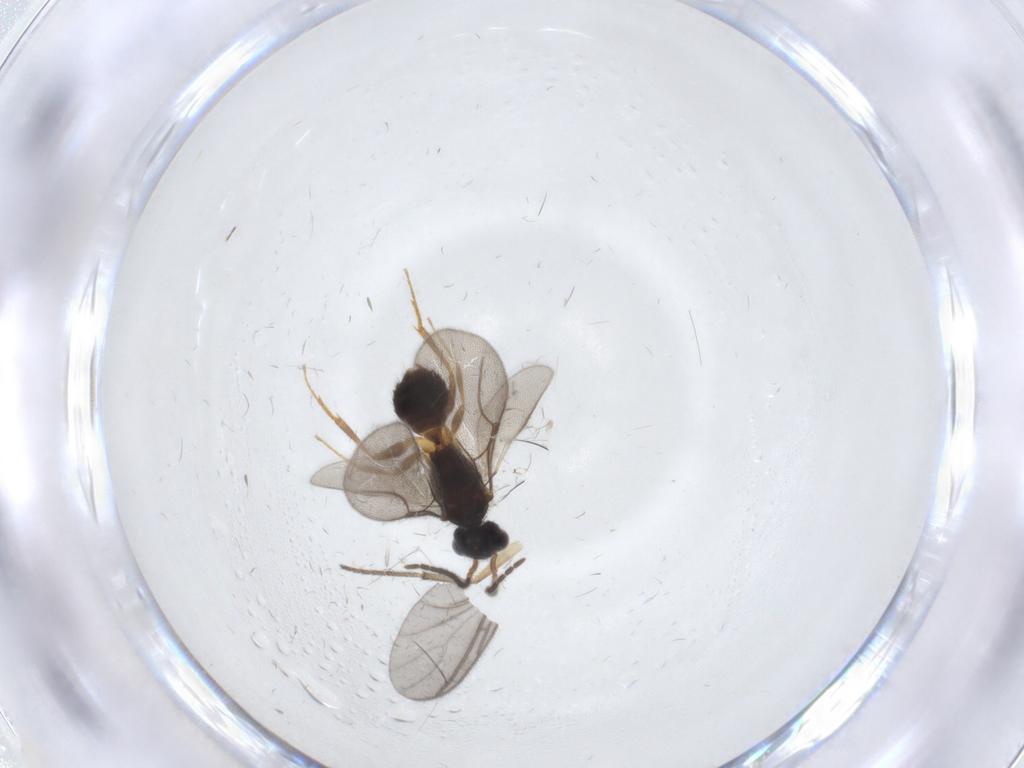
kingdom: Animalia
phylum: Arthropoda
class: Insecta
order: Hymenoptera
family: Bethylidae
